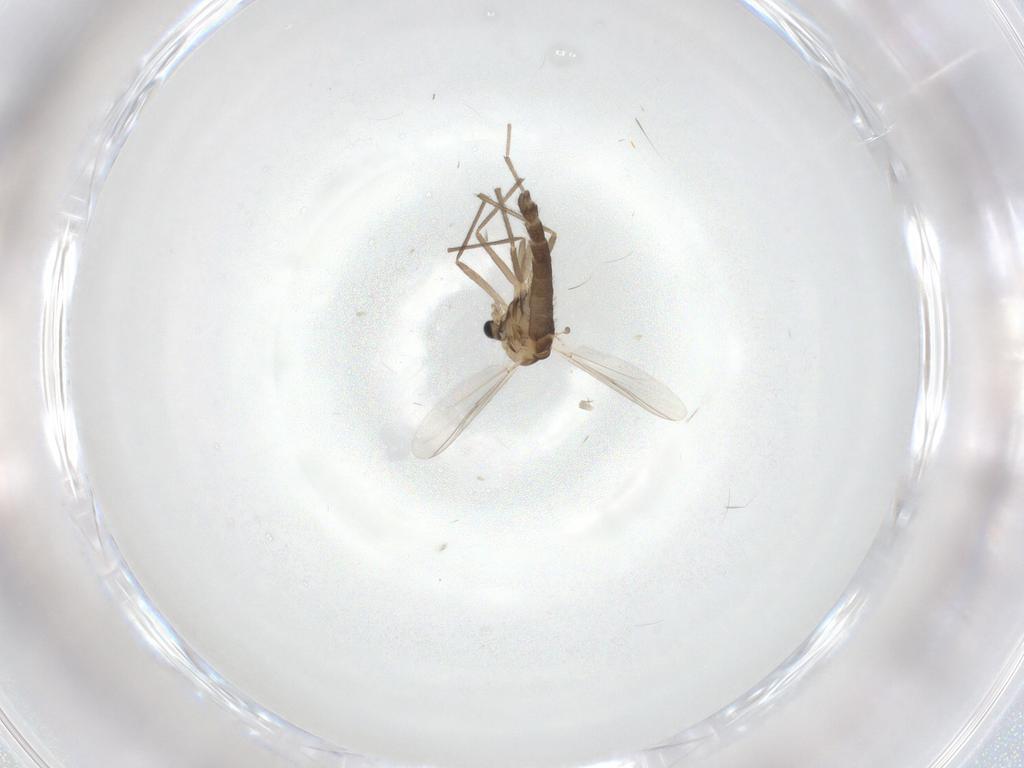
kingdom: Animalia
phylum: Arthropoda
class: Insecta
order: Diptera
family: Chironomidae
